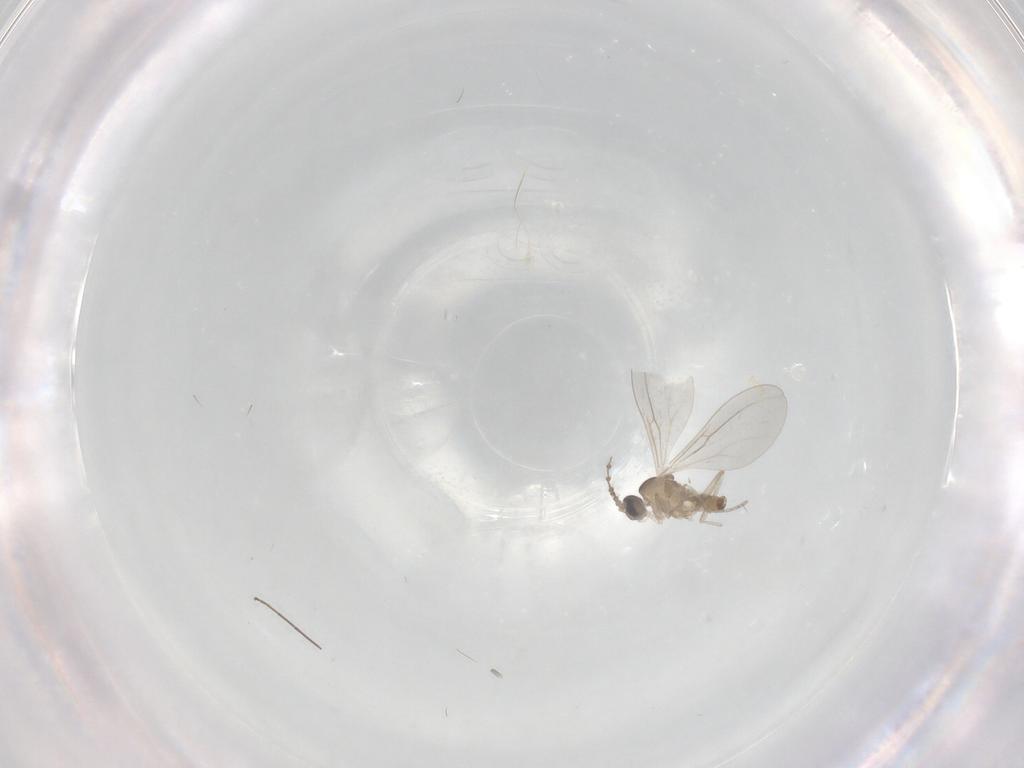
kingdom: Animalia
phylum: Arthropoda
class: Insecta
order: Diptera
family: Cecidomyiidae
